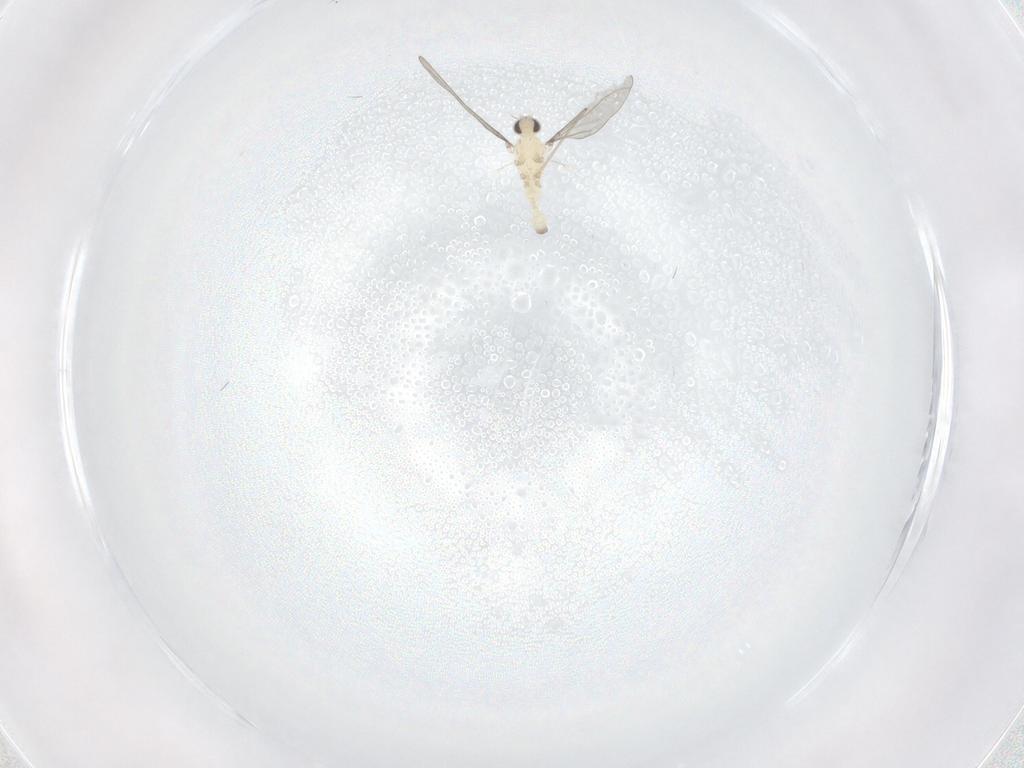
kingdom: Animalia
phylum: Arthropoda
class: Insecta
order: Diptera
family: Cecidomyiidae
